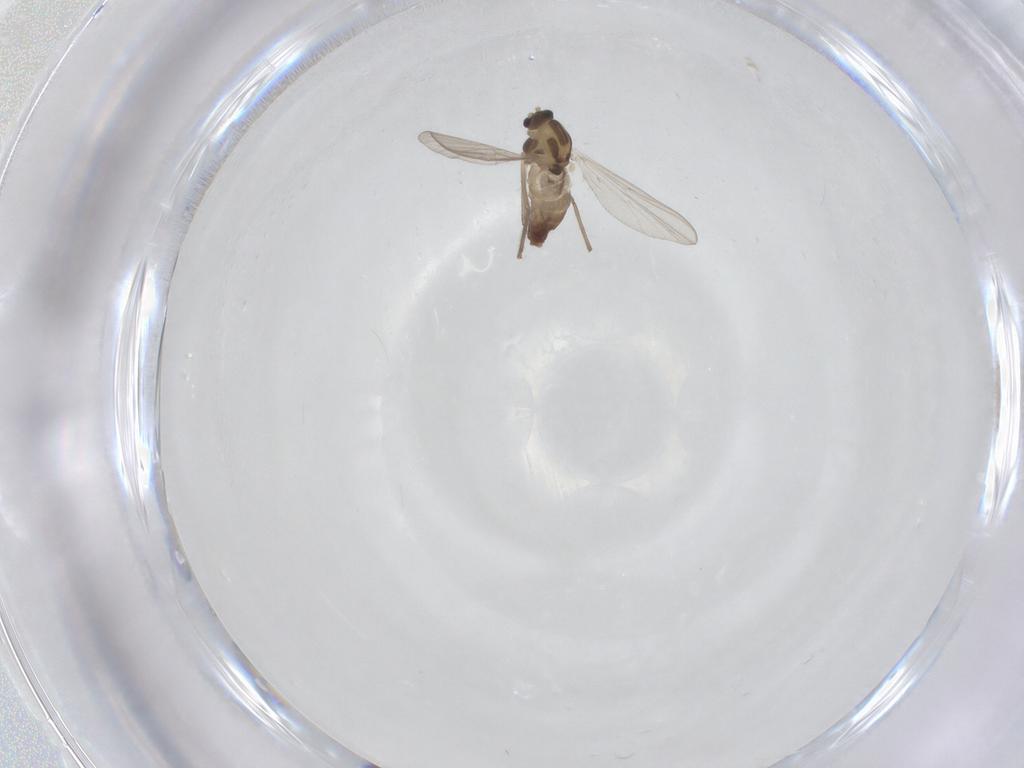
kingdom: Animalia
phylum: Arthropoda
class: Insecta
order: Diptera
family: Chironomidae
